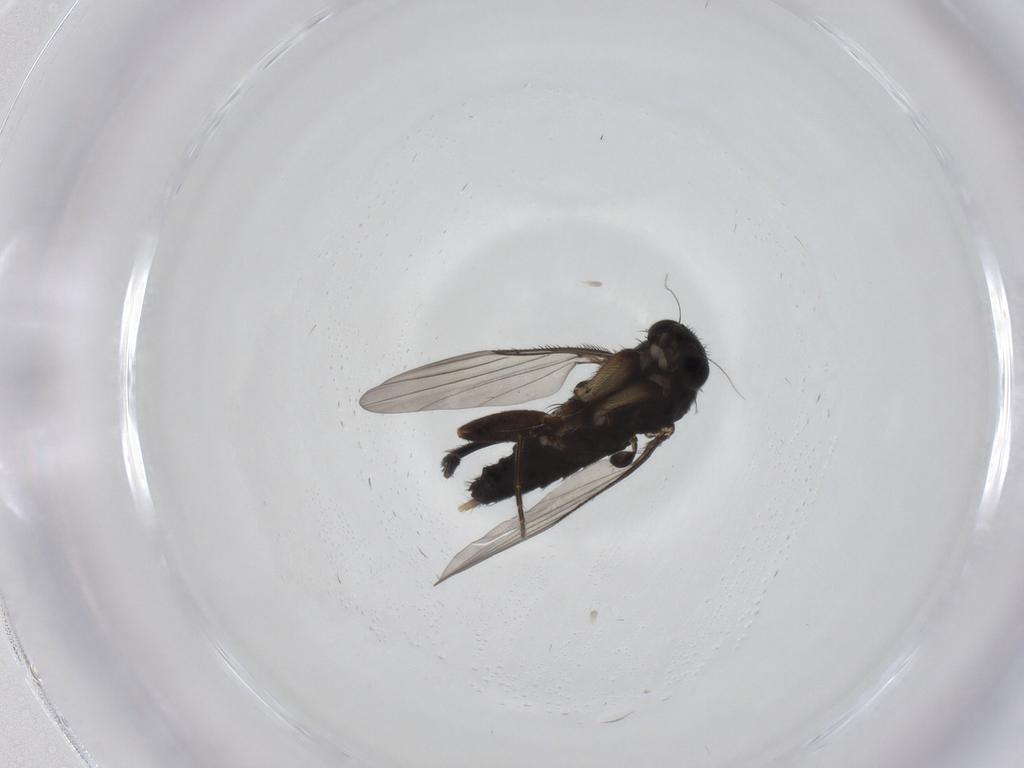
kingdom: Animalia
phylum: Arthropoda
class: Insecta
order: Diptera
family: Phoridae
